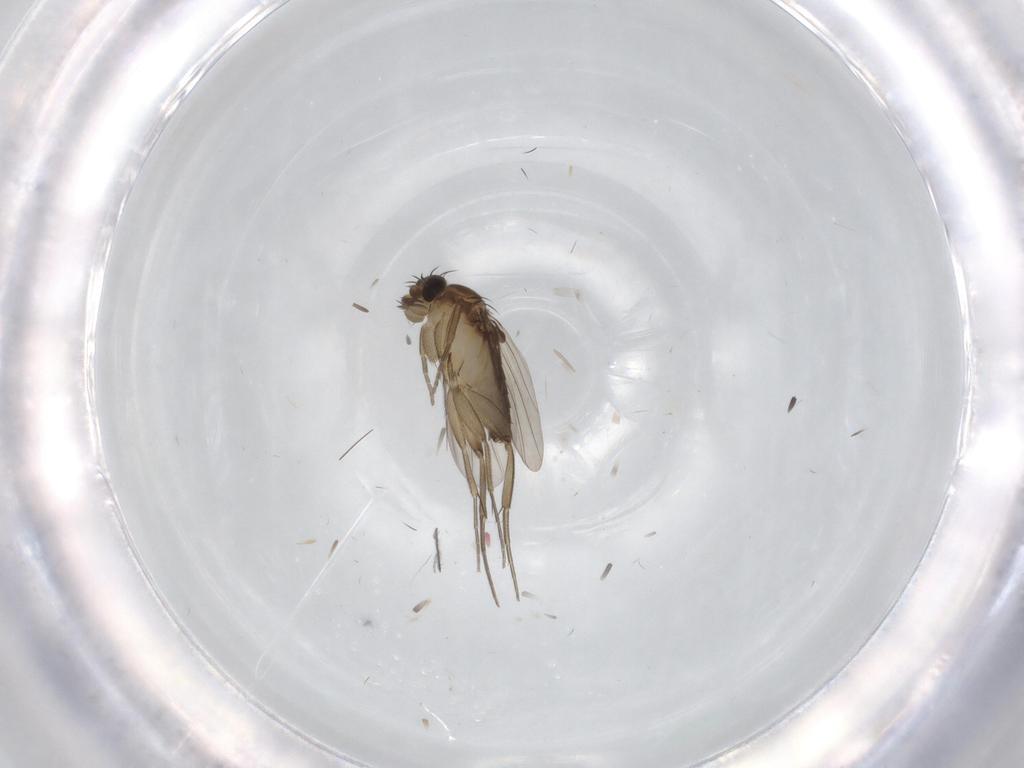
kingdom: Animalia
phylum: Arthropoda
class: Insecta
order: Diptera
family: Phoridae
